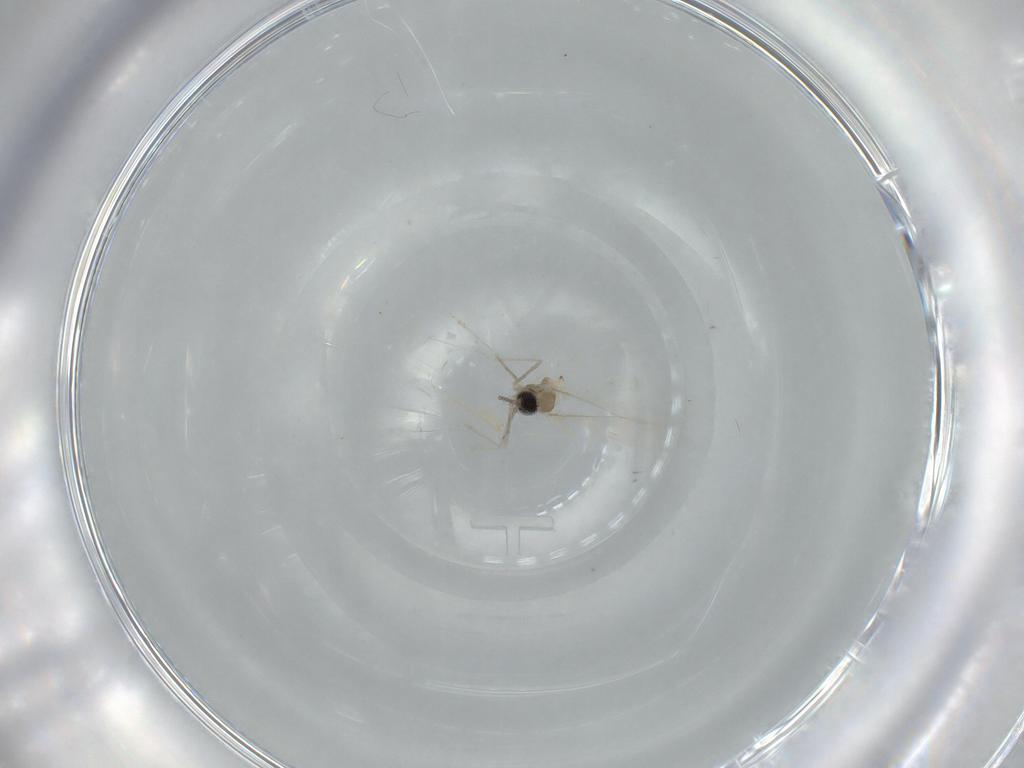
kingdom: Animalia
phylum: Arthropoda
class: Insecta
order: Diptera
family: Cecidomyiidae
